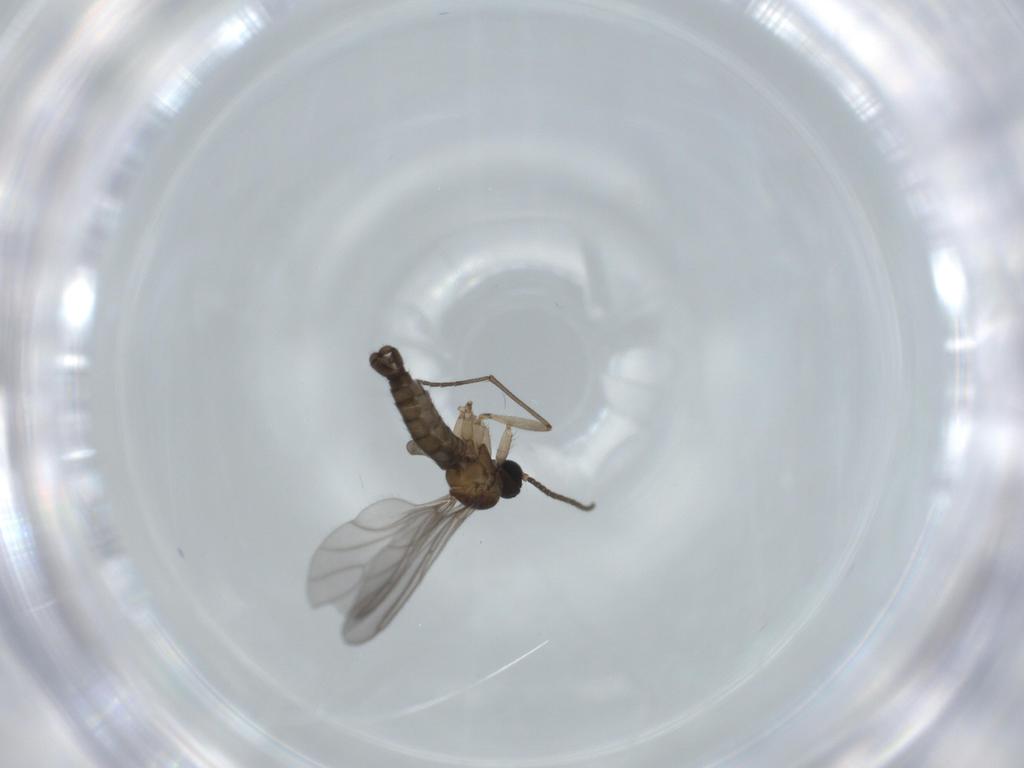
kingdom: Animalia
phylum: Arthropoda
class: Insecta
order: Diptera
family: Sciaridae
